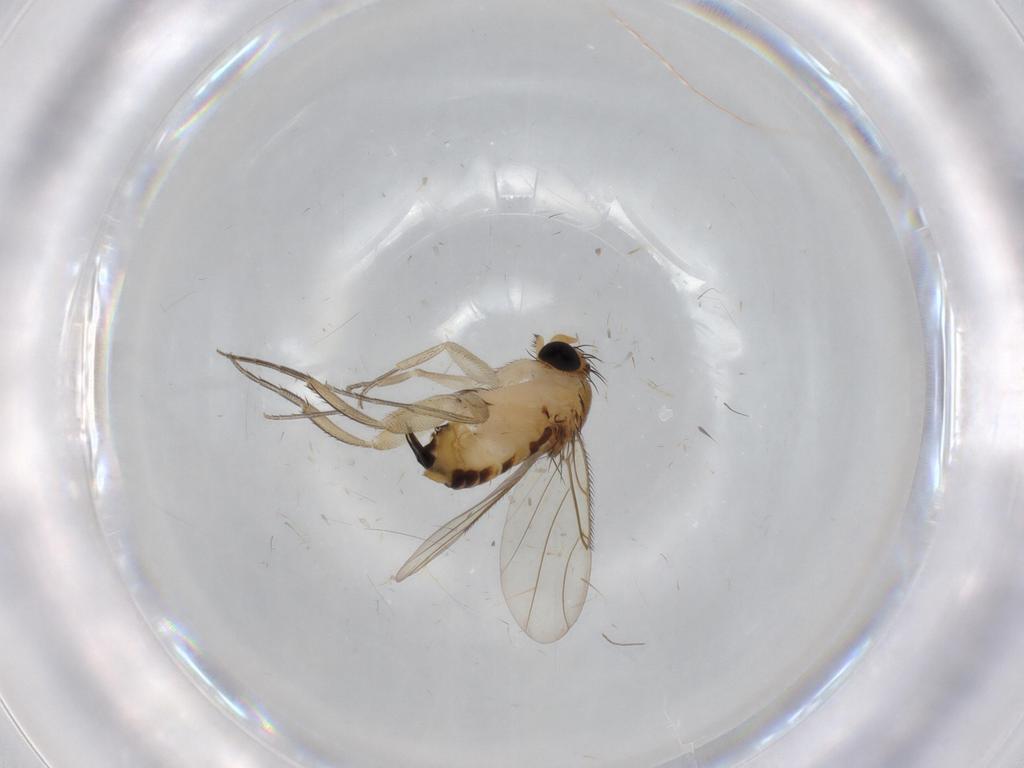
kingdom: Animalia
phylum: Arthropoda
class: Insecta
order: Diptera
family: Phoridae
